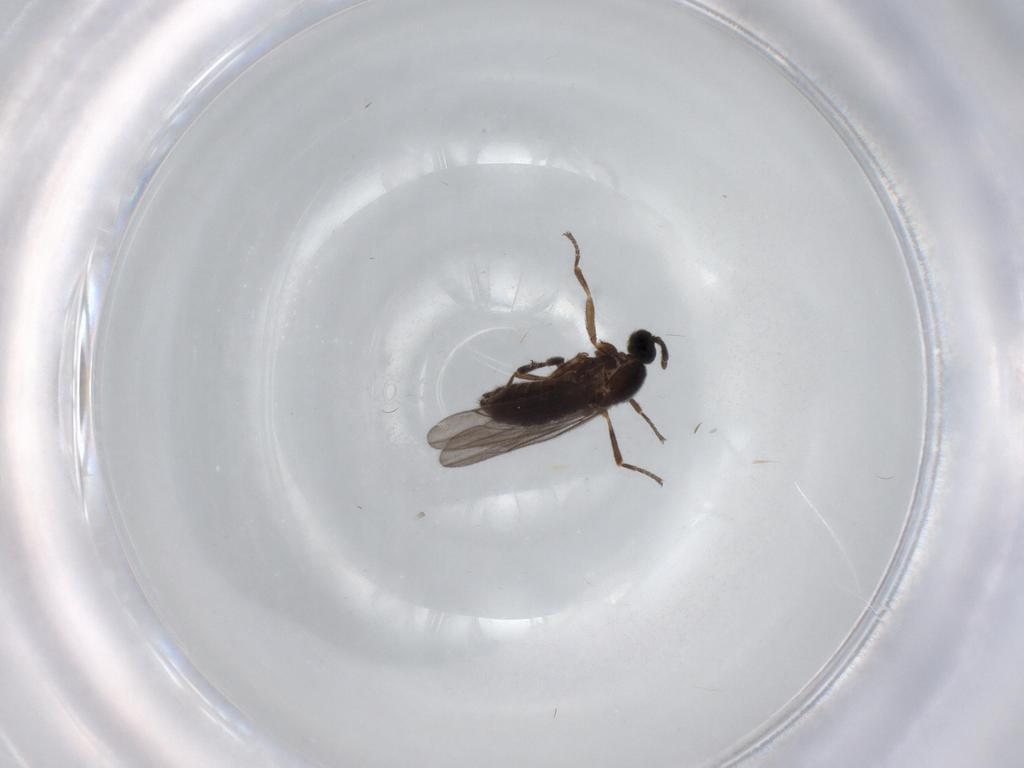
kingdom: Animalia
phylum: Arthropoda
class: Insecta
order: Diptera
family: Scatopsidae
